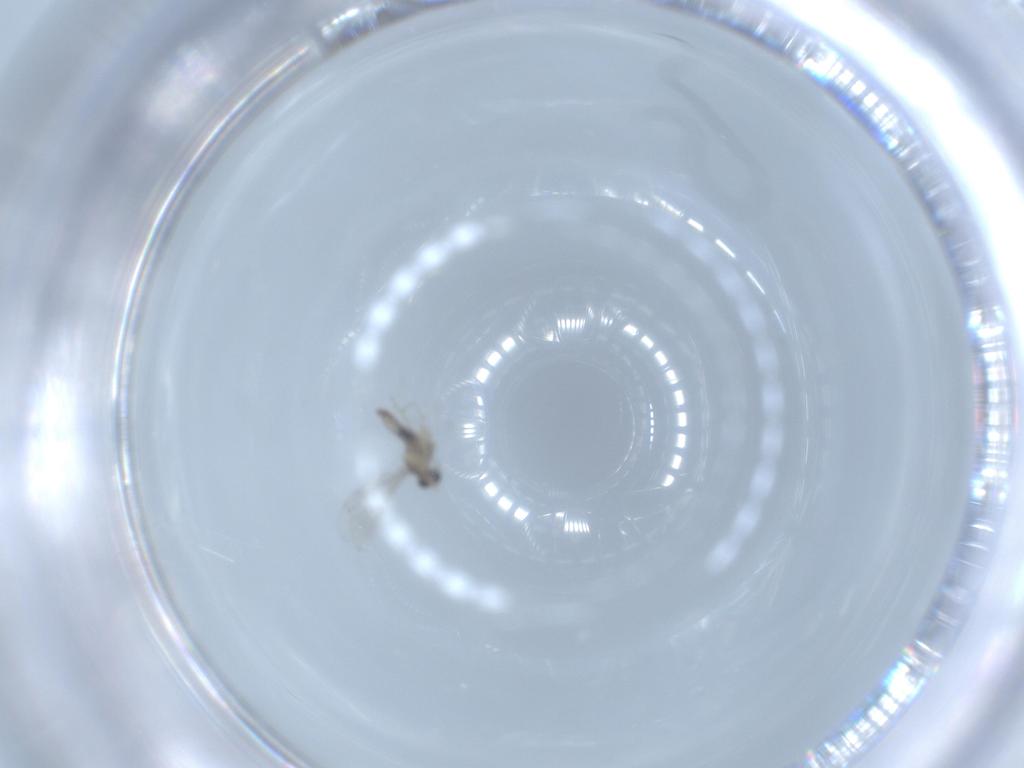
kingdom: Animalia
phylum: Arthropoda
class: Insecta
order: Diptera
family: Cecidomyiidae
